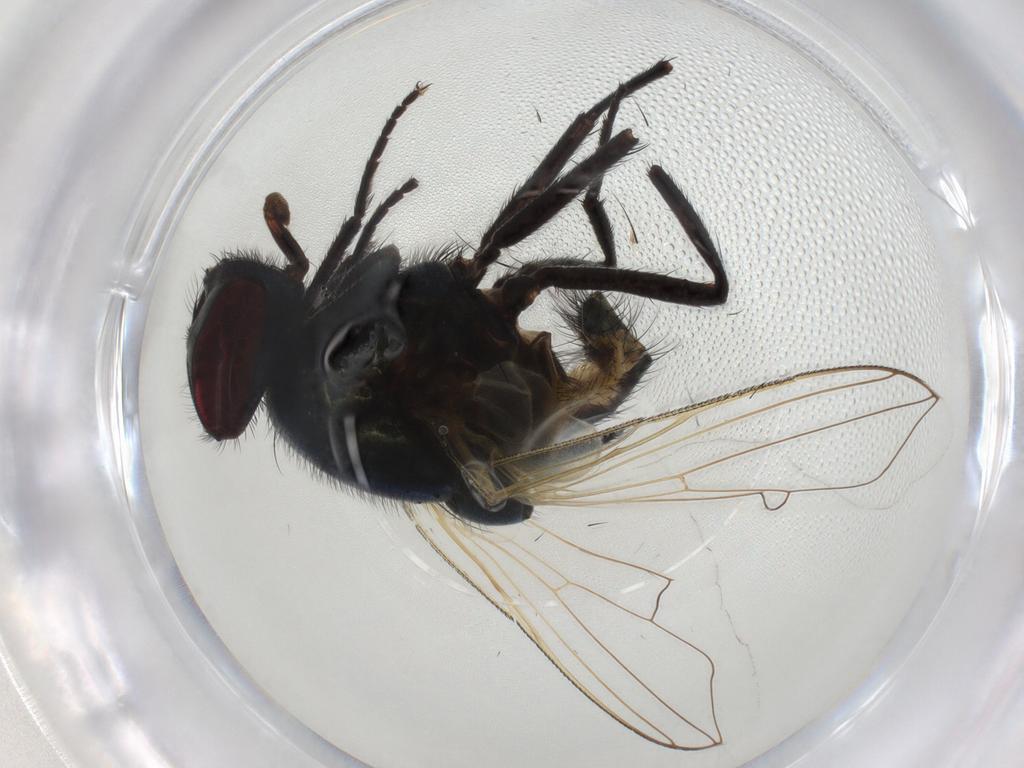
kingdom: Animalia
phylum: Arthropoda
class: Insecta
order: Diptera
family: Muscidae
